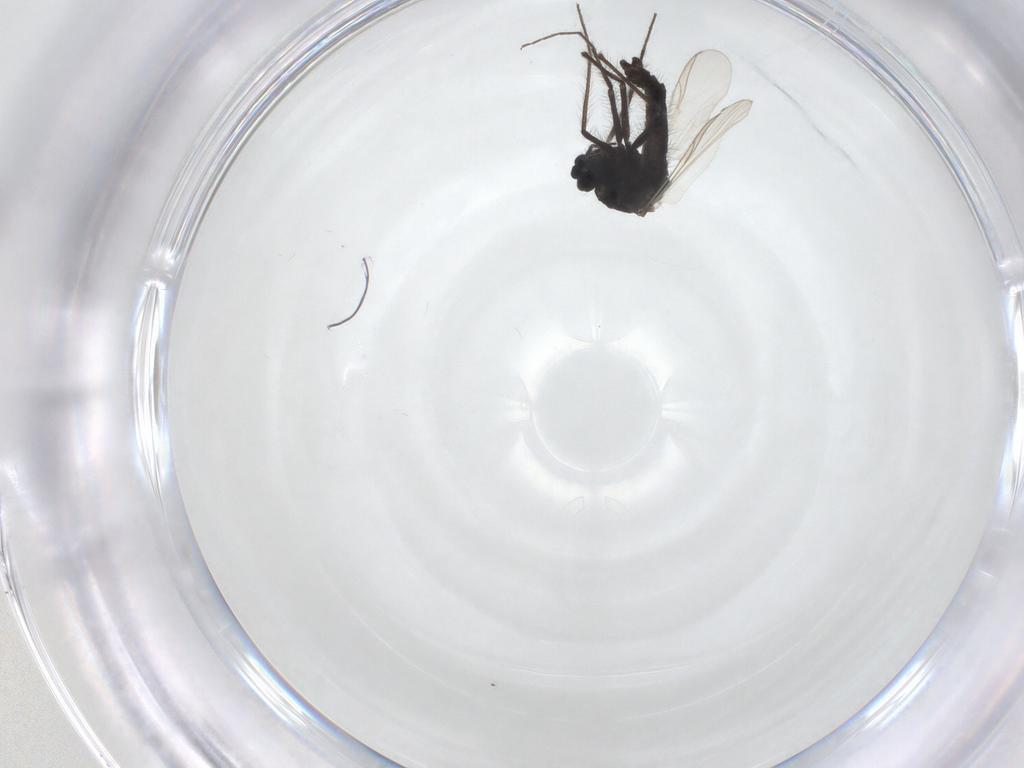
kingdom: Animalia
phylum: Arthropoda
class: Insecta
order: Diptera
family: Chironomidae
